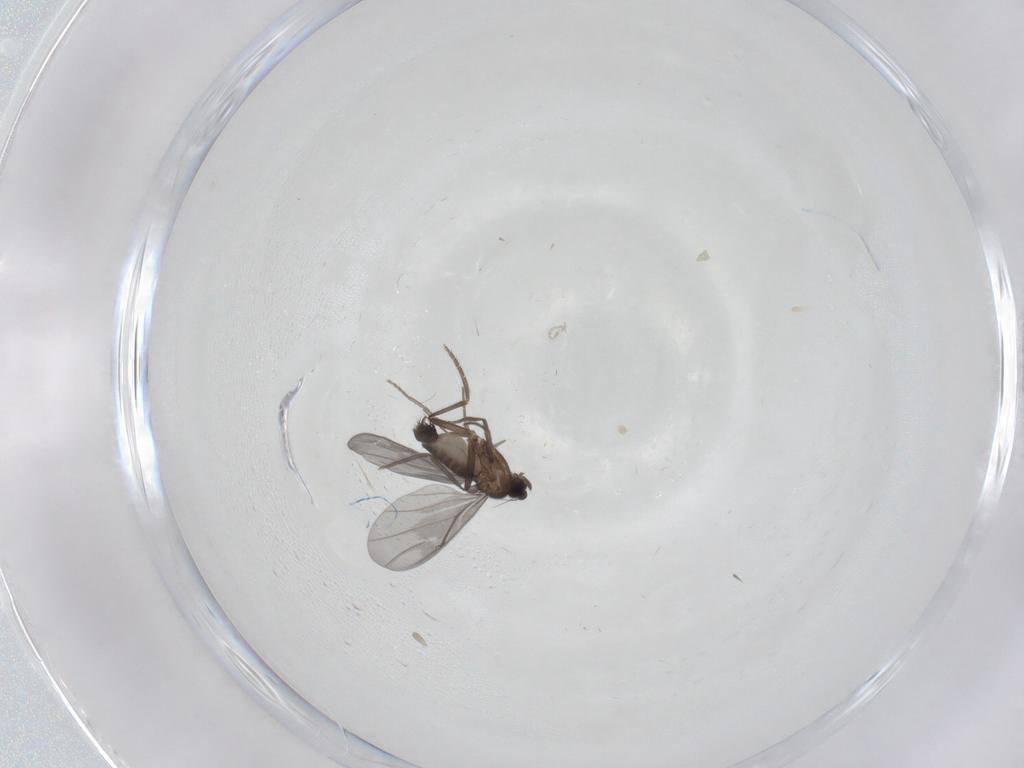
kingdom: Animalia
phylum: Arthropoda
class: Insecta
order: Diptera
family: Phoridae
